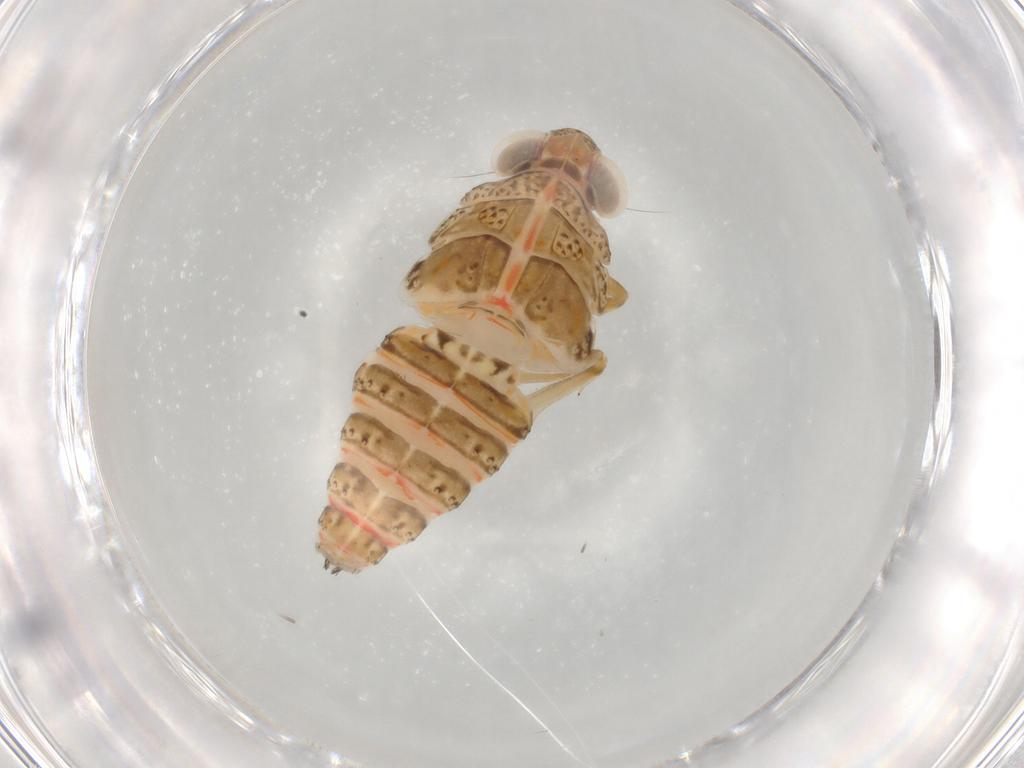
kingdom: Animalia
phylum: Arthropoda
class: Insecta
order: Hemiptera
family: Issidae
